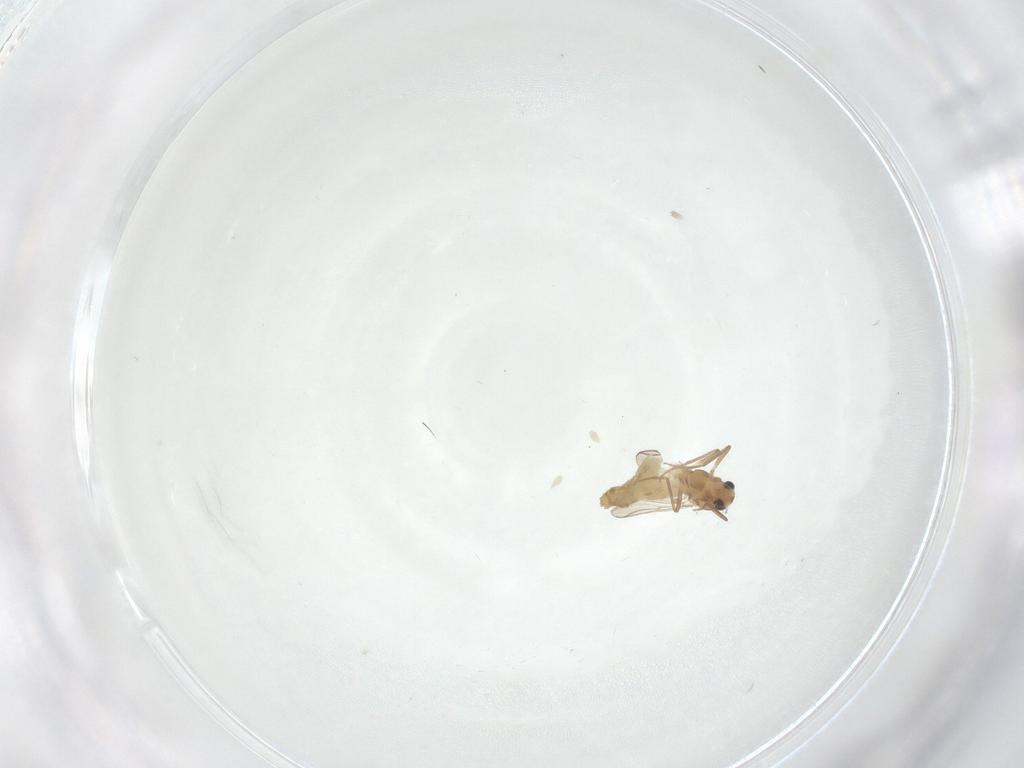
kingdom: Animalia
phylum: Arthropoda
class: Insecta
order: Diptera
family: Chironomidae
